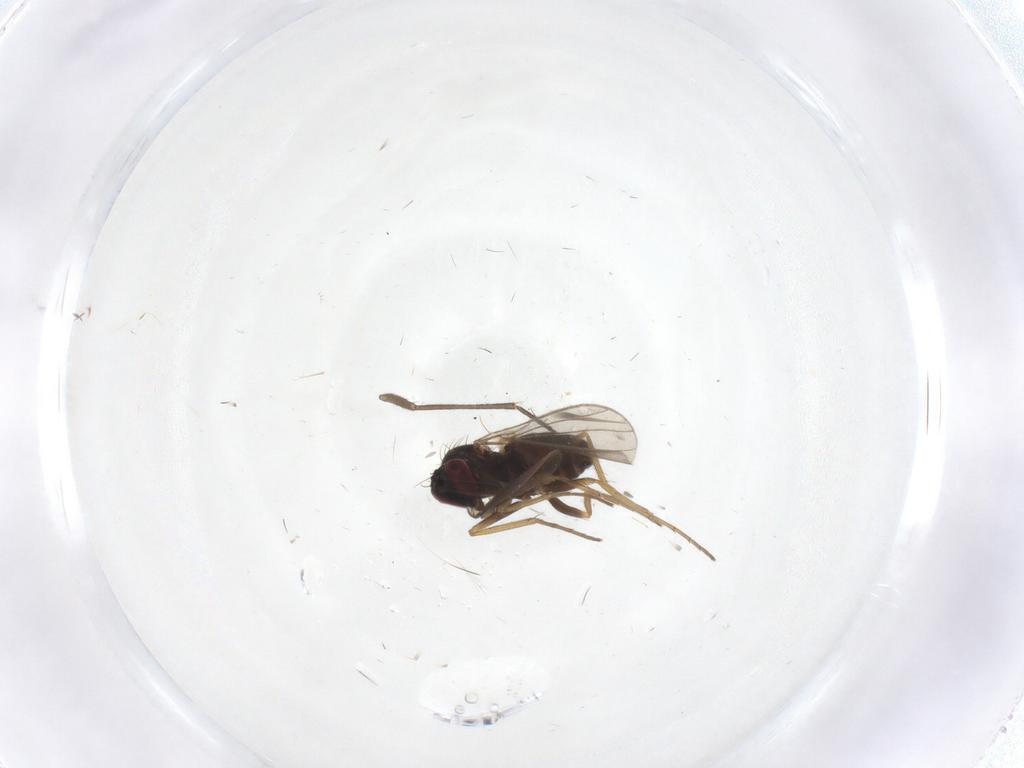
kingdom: Animalia
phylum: Arthropoda
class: Insecta
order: Diptera
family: Sciaridae
